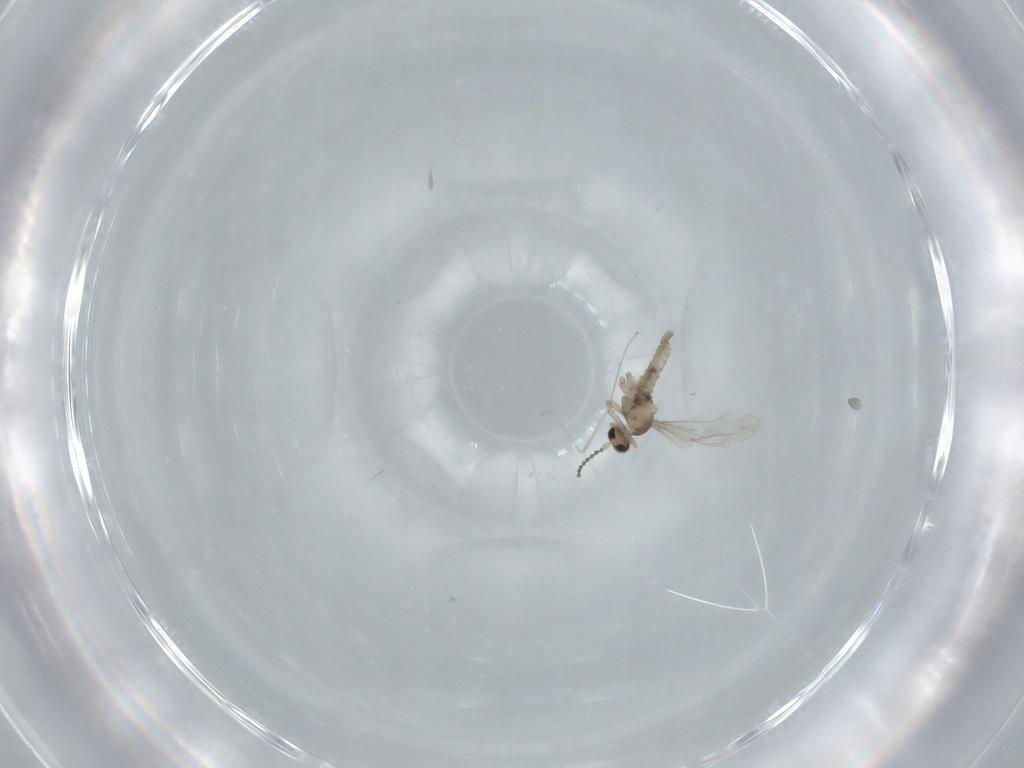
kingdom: Animalia
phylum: Arthropoda
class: Insecta
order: Diptera
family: Cecidomyiidae
